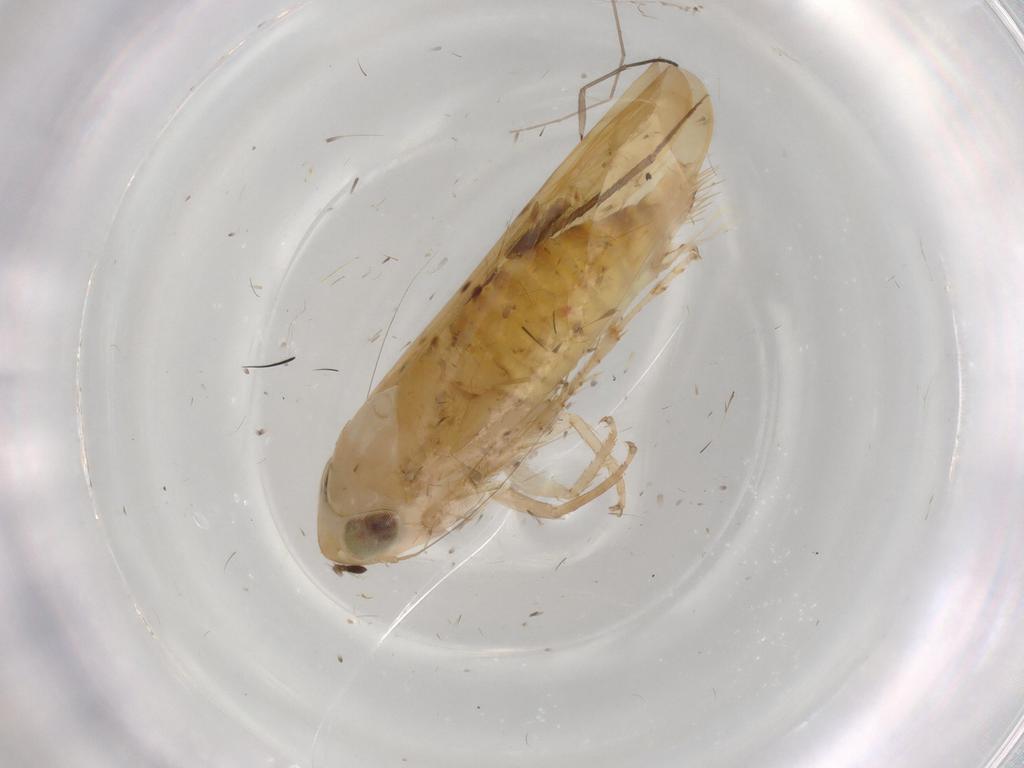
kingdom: Animalia
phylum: Arthropoda
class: Insecta
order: Hemiptera
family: Cicadellidae
